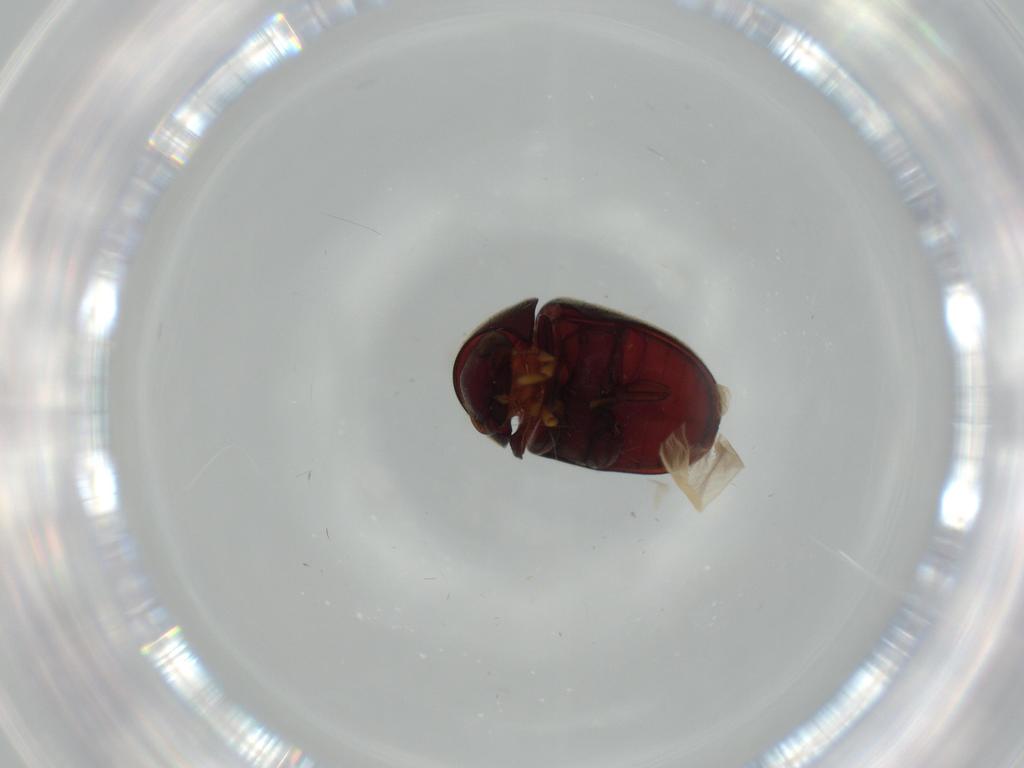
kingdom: Animalia
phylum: Arthropoda
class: Insecta
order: Coleoptera
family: Ptinidae
